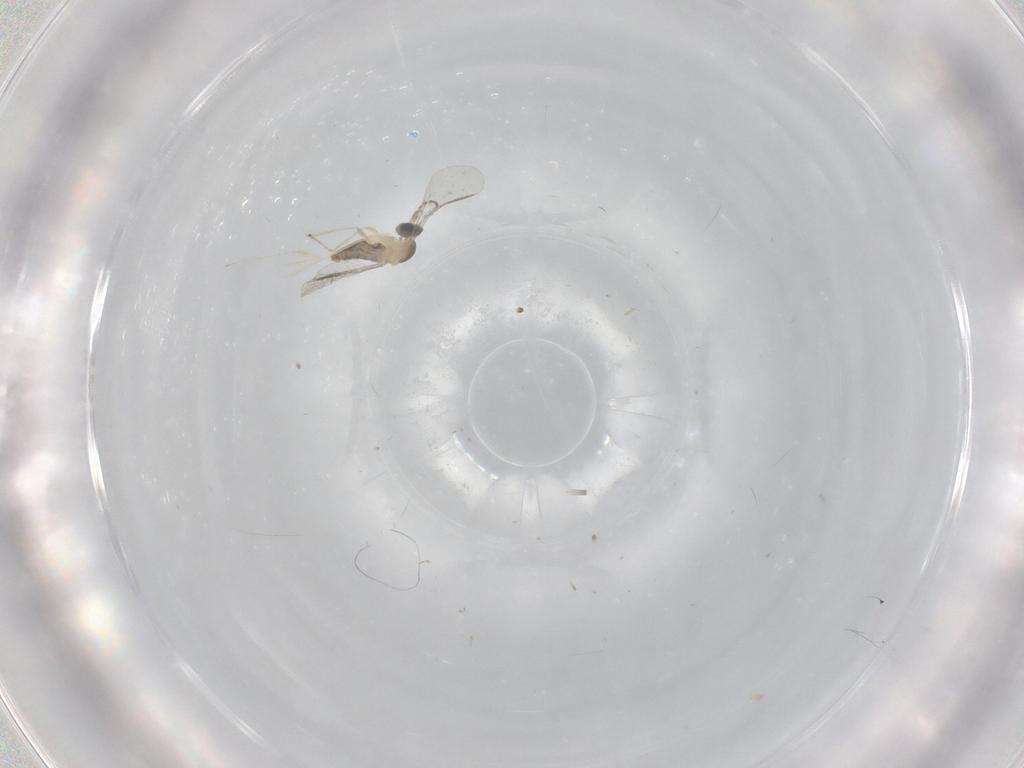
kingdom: Animalia
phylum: Arthropoda
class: Insecta
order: Diptera
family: Cecidomyiidae
